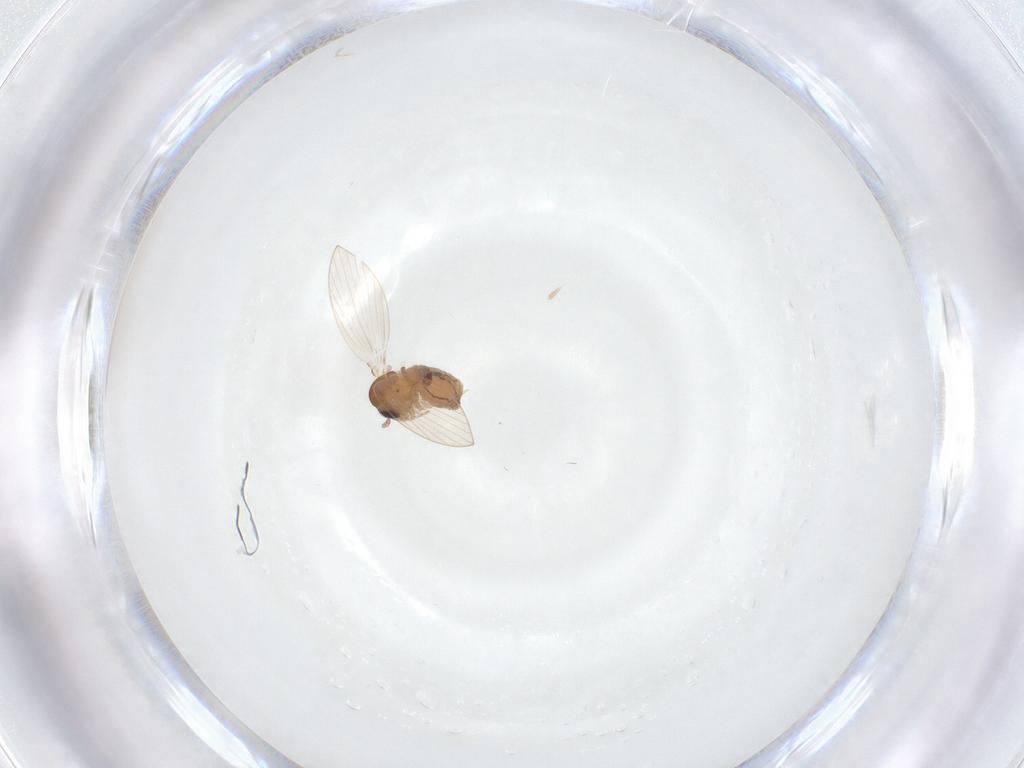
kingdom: Animalia
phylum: Arthropoda
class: Insecta
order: Diptera
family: Psychodidae
